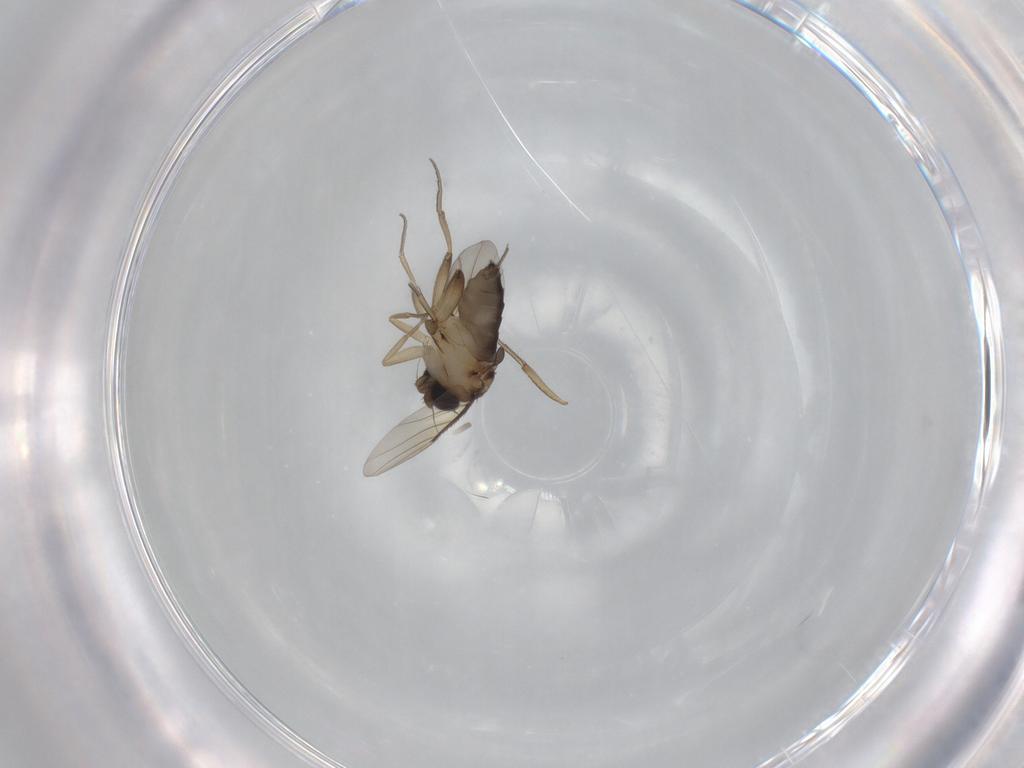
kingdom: Animalia
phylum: Arthropoda
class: Insecta
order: Diptera
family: Phoridae
